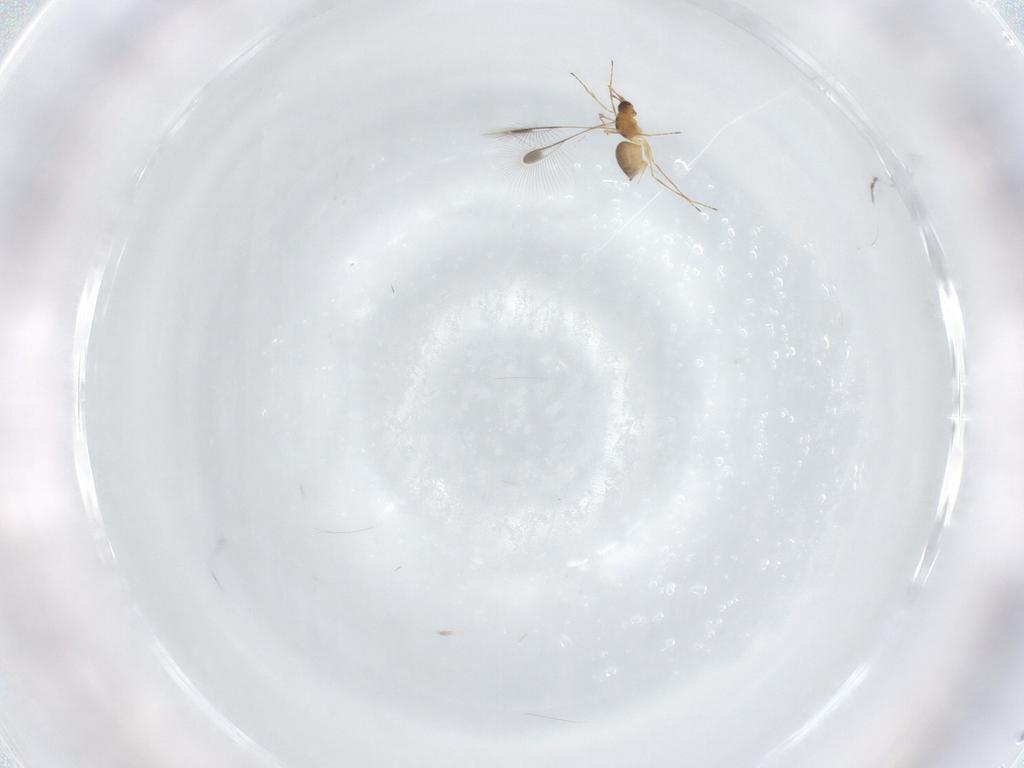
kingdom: Animalia
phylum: Arthropoda
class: Insecta
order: Hymenoptera
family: Mymaridae
